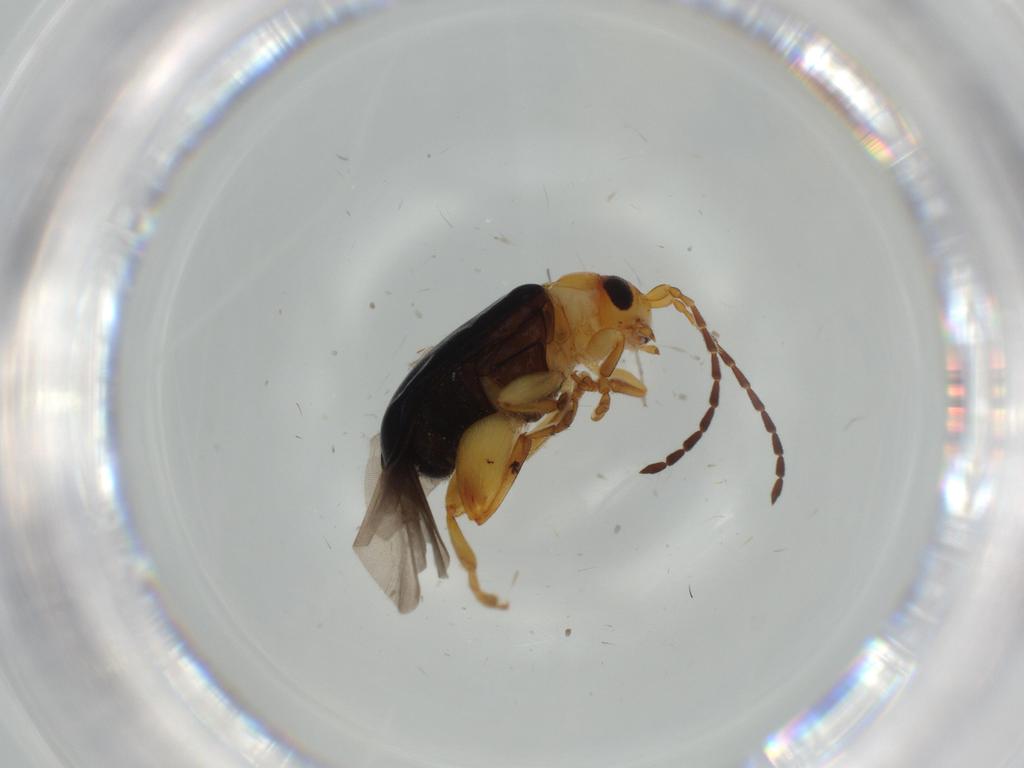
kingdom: Animalia
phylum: Arthropoda
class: Insecta
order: Coleoptera
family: Chrysomelidae
